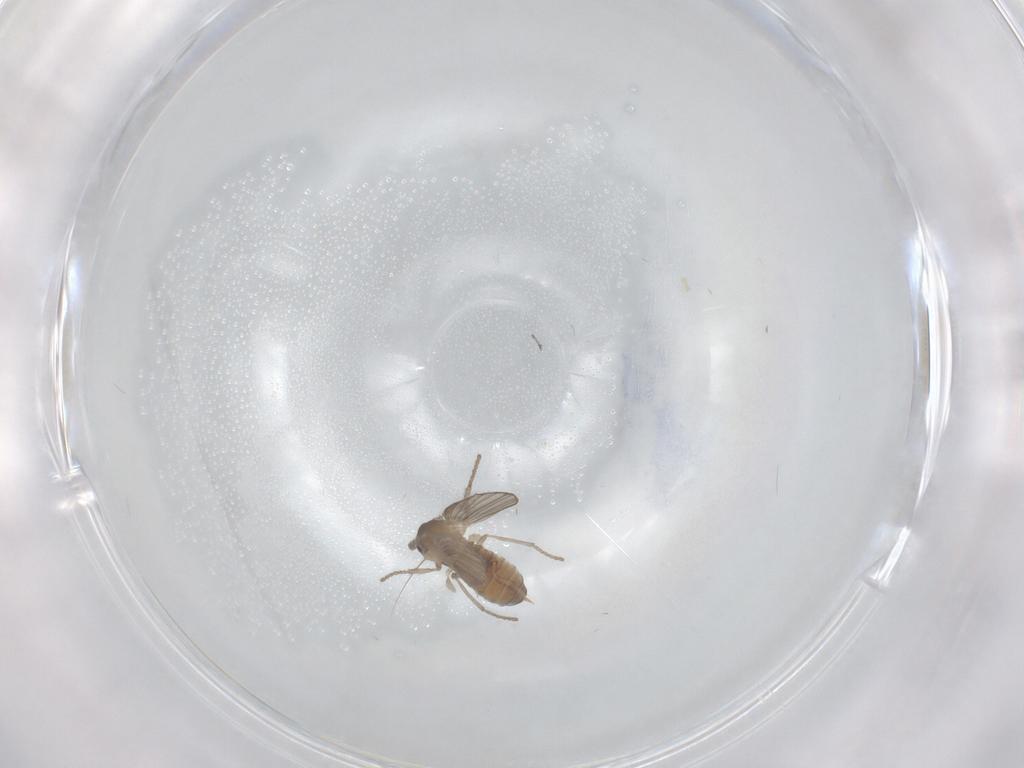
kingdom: Animalia
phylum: Arthropoda
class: Insecta
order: Diptera
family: Psychodidae
